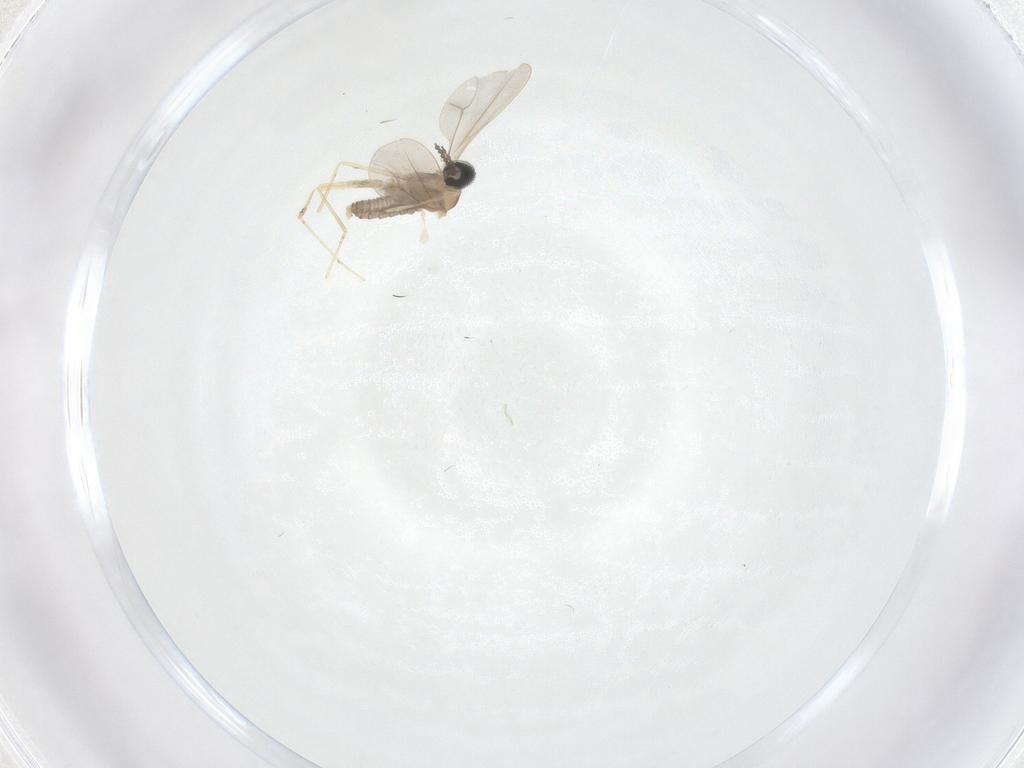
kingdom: Animalia
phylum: Arthropoda
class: Insecta
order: Diptera
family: Cecidomyiidae
